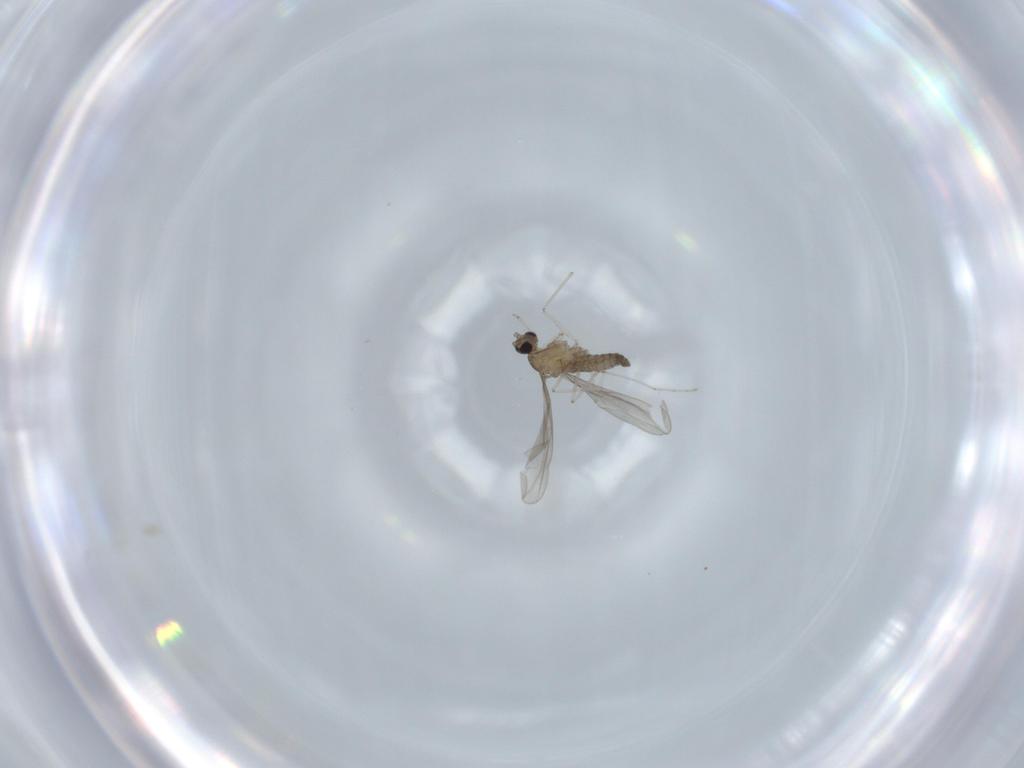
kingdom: Animalia
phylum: Arthropoda
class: Insecta
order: Diptera
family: Cecidomyiidae
